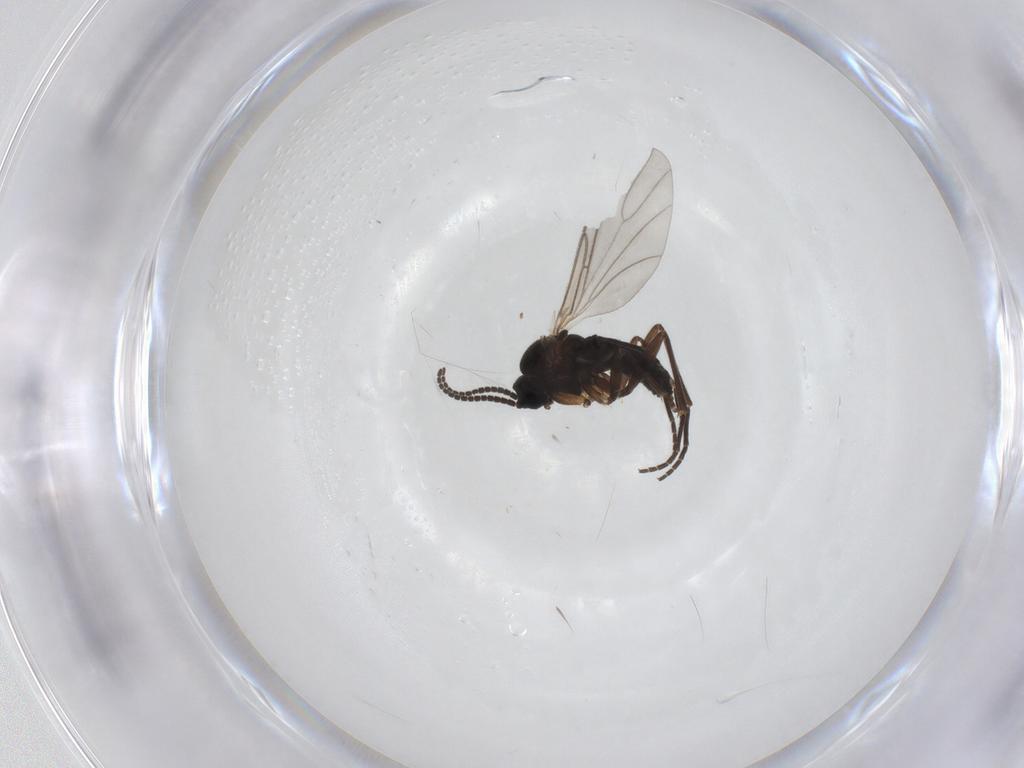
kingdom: Animalia
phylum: Arthropoda
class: Insecta
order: Diptera
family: Sciaridae
